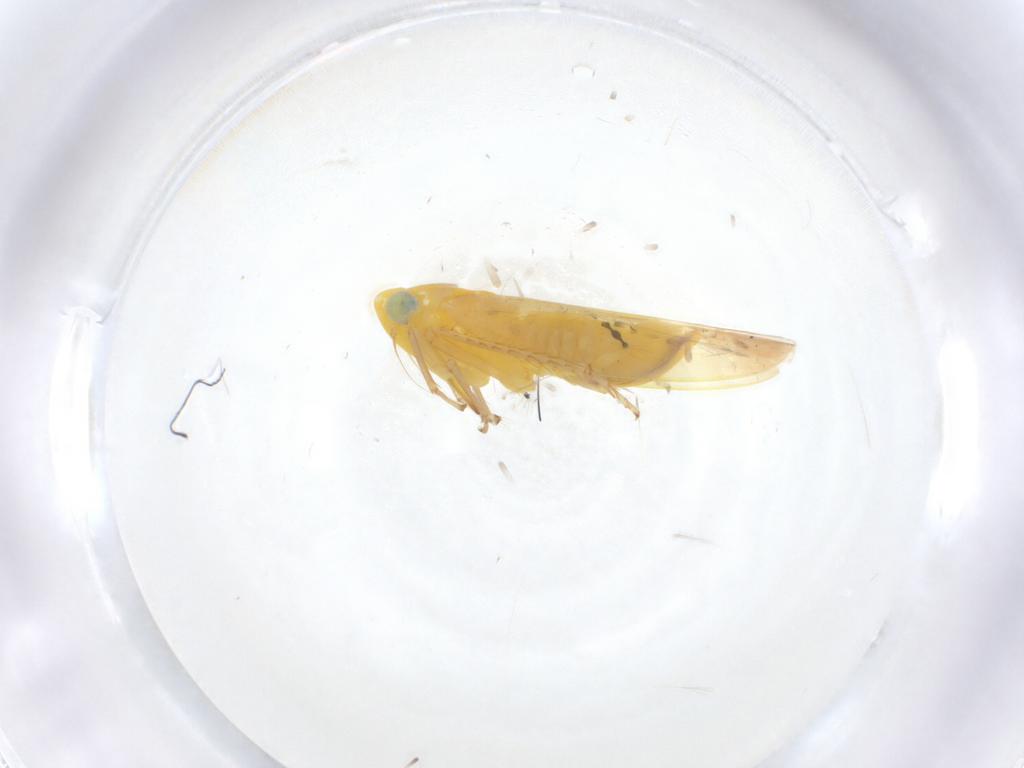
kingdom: Animalia
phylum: Arthropoda
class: Insecta
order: Hemiptera
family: Cicadellidae
